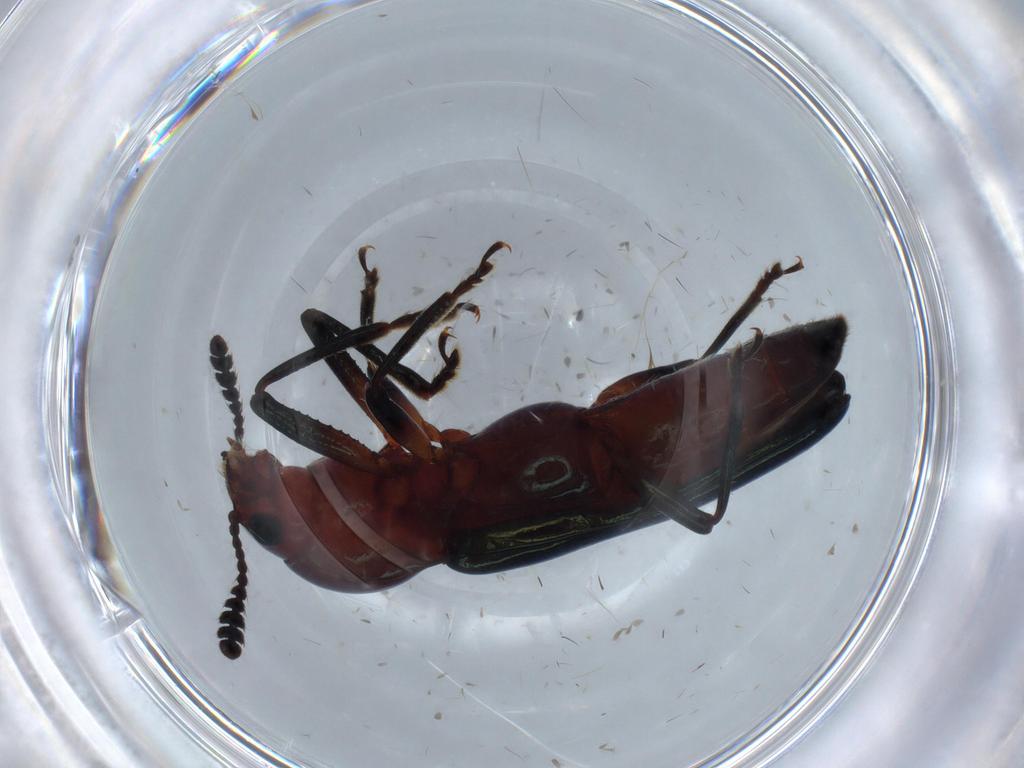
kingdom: Animalia
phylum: Arthropoda
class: Insecta
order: Coleoptera
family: Erotylidae
